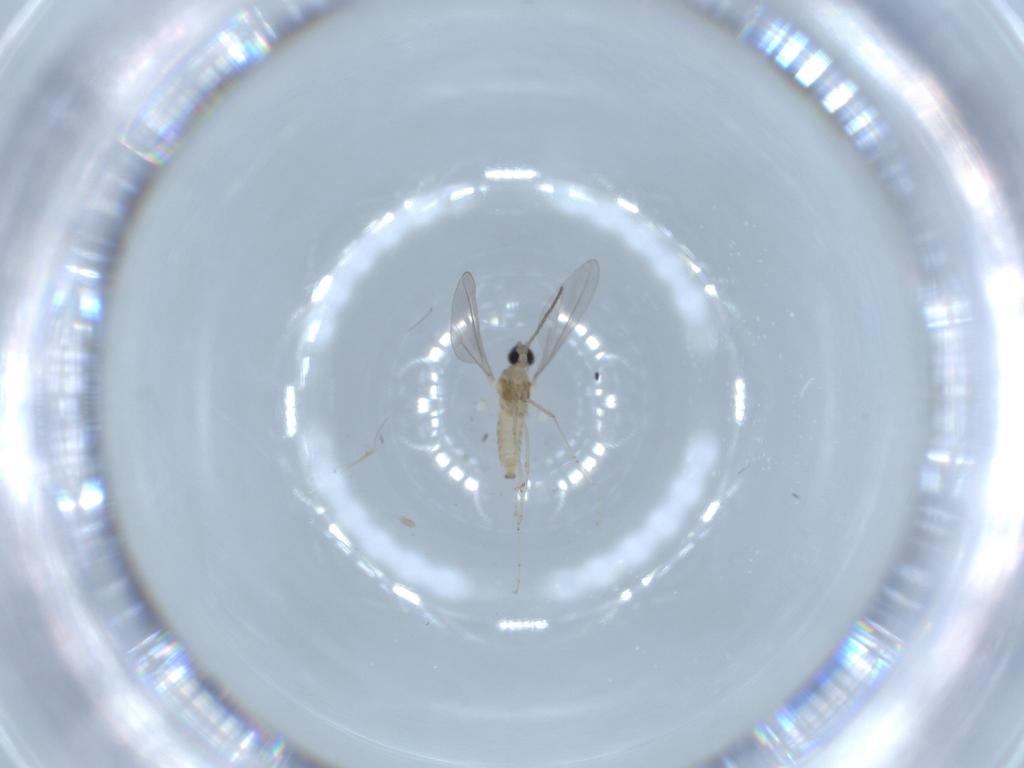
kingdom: Animalia
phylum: Arthropoda
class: Insecta
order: Diptera
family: Cecidomyiidae
